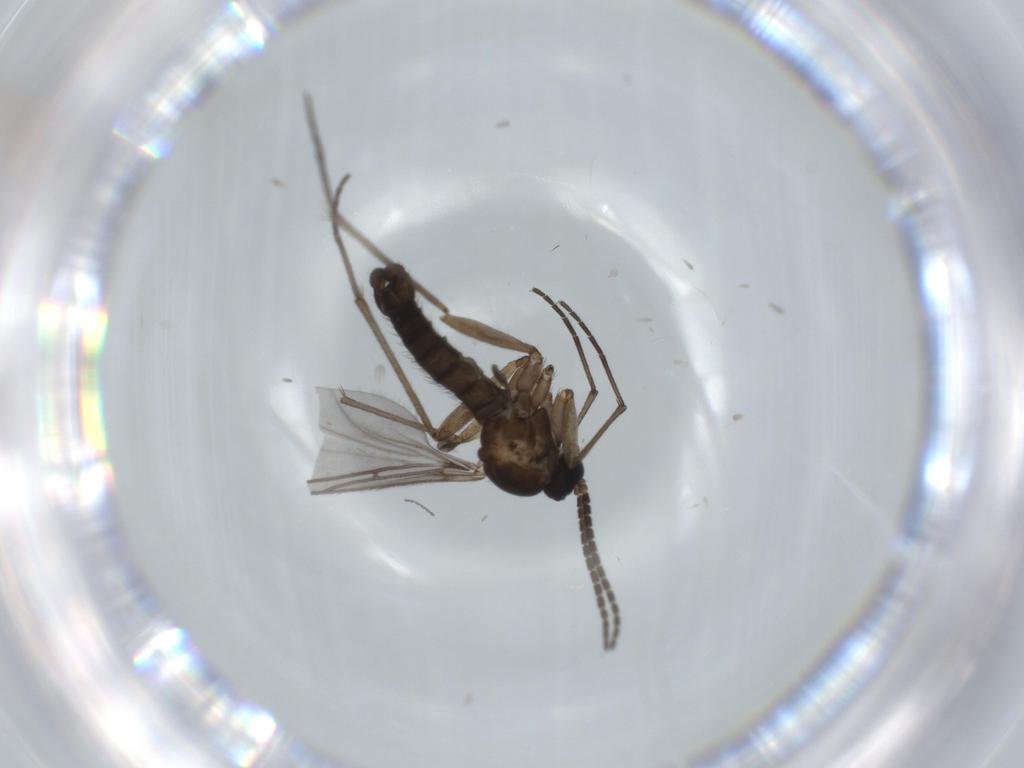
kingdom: Animalia
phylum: Arthropoda
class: Insecta
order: Diptera
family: Sciaridae
